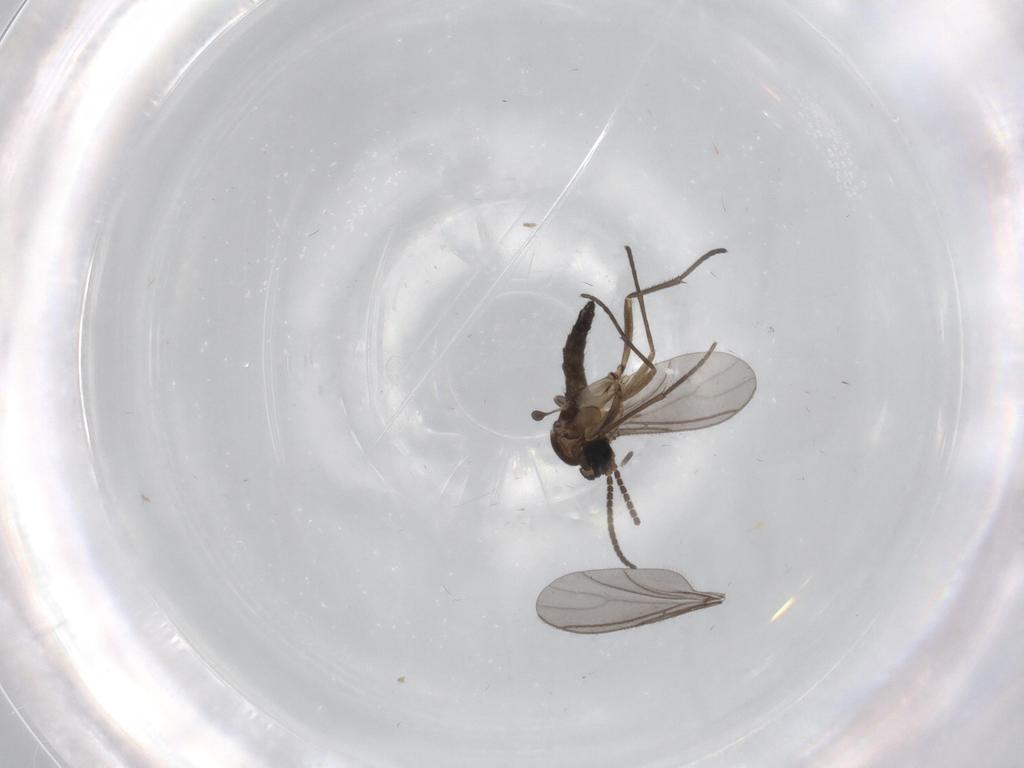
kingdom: Animalia
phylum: Arthropoda
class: Insecta
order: Diptera
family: Sciaridae
